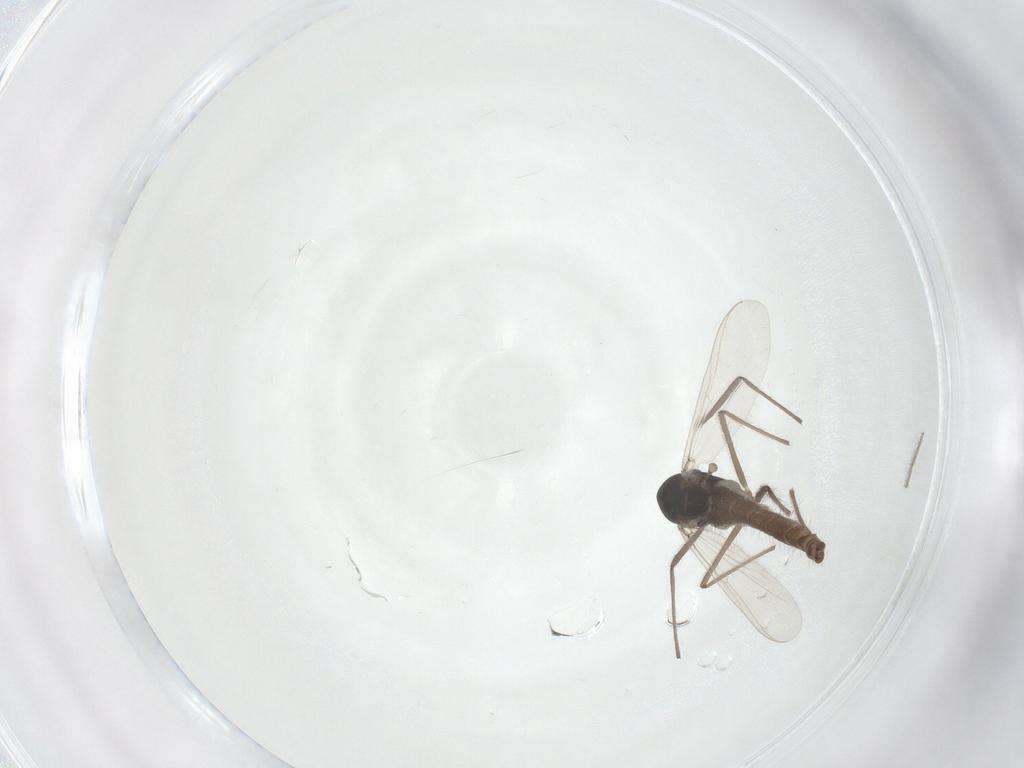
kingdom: Animalia
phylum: Arthropoda
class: Insecta
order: Diptera
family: Chironomidae
